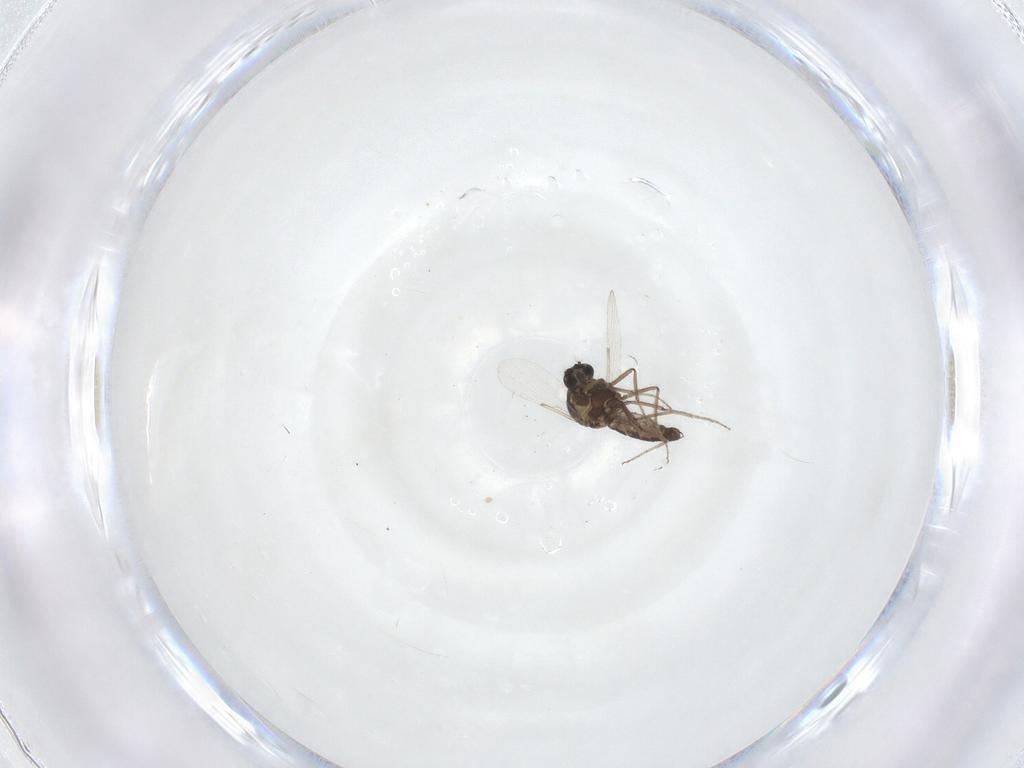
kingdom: Animalia
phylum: Arthropoda
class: Insecta
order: Diptera
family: Ceratopogonidae
